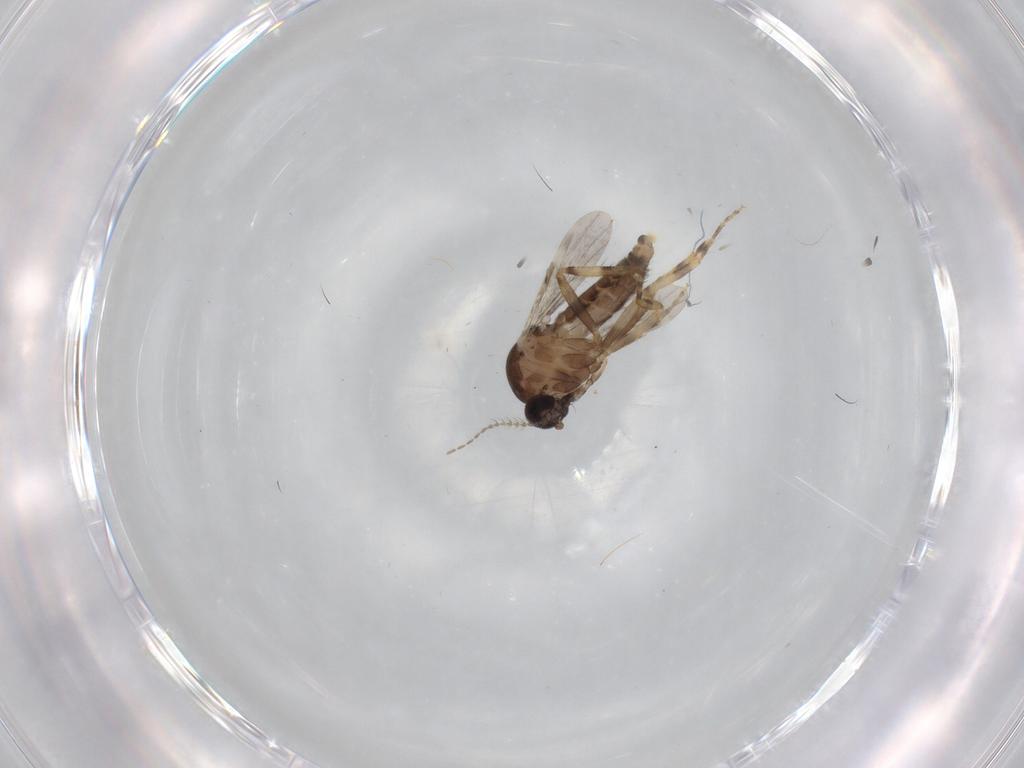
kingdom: Animalia
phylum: Arthropoda
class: Insecta
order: Diptera
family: Ceratopogonidae
